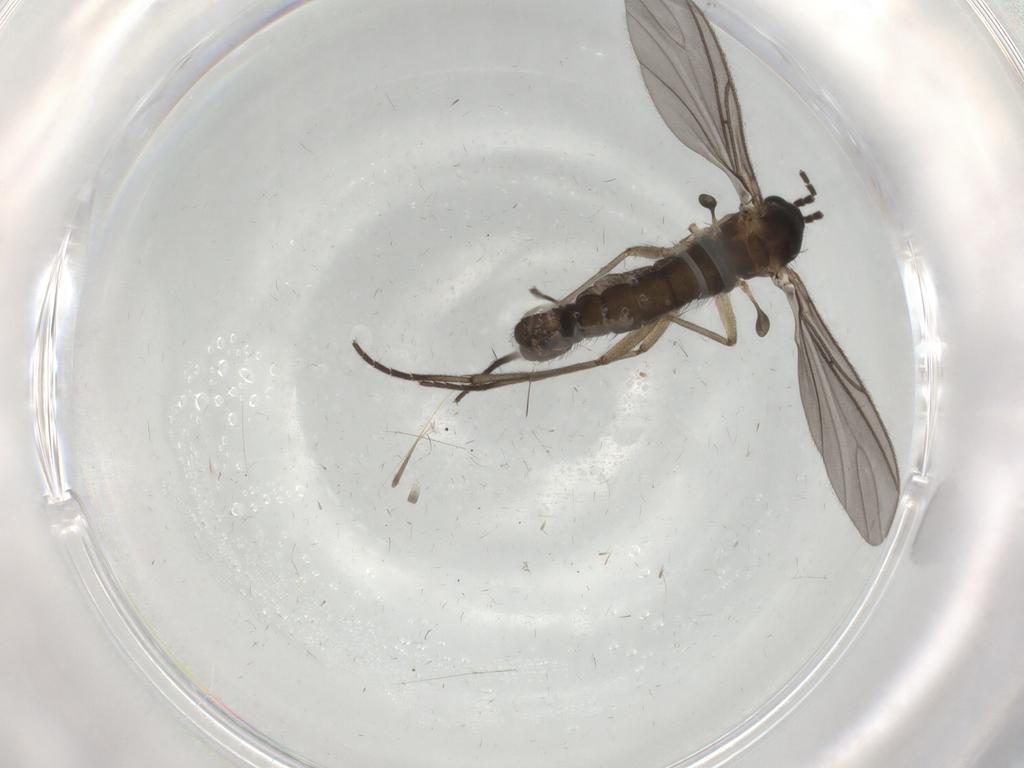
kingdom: Animalia
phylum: Arthropoda
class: Insecta
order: Diptera
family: Sciaridae
